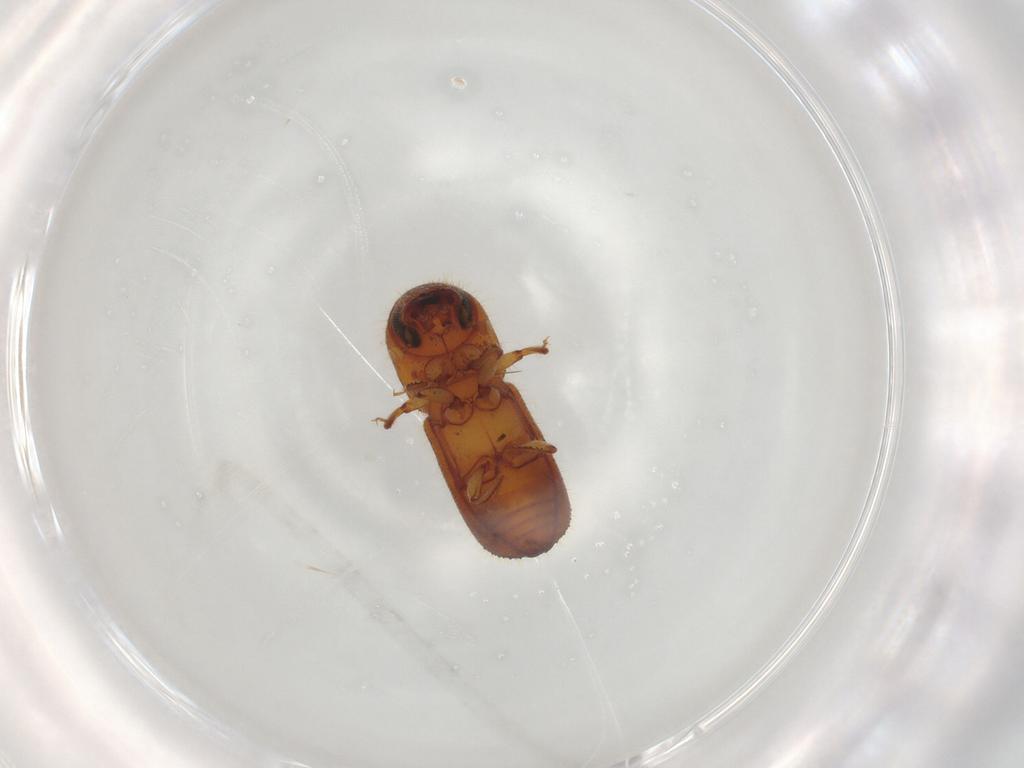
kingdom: Animalia
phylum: Arthropoda
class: Insecta
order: Coleoptera
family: Curculionidae
